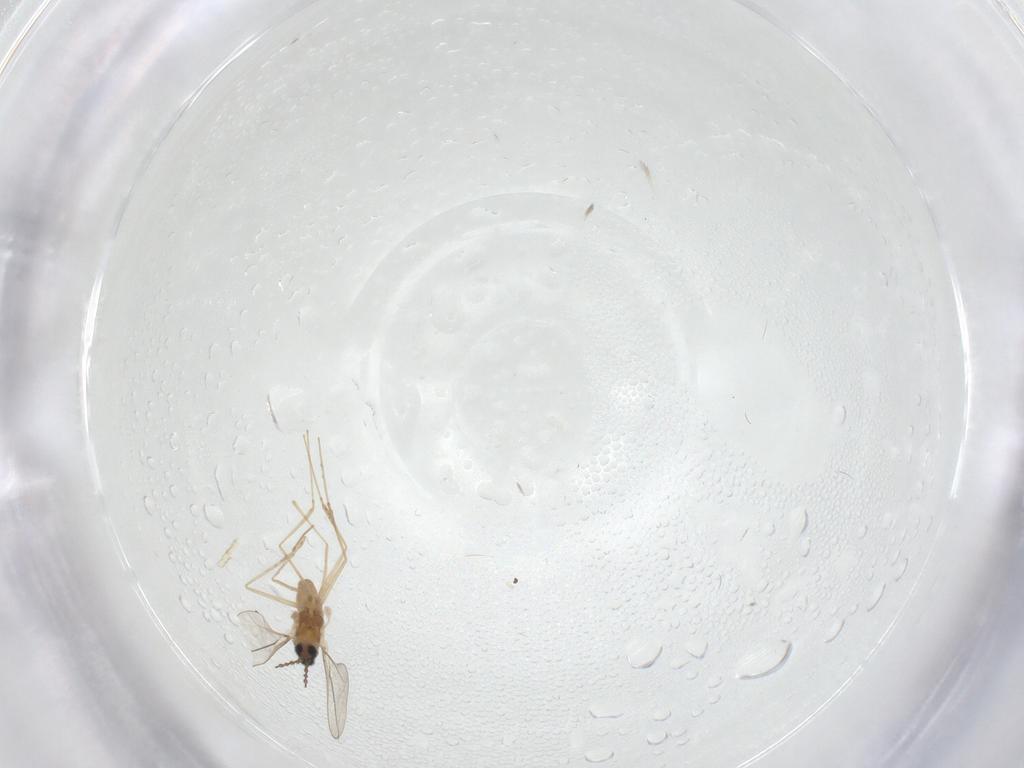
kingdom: Animalia
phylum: Arthropoda
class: Insecta
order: Diptera
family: Cecidomyiidae
